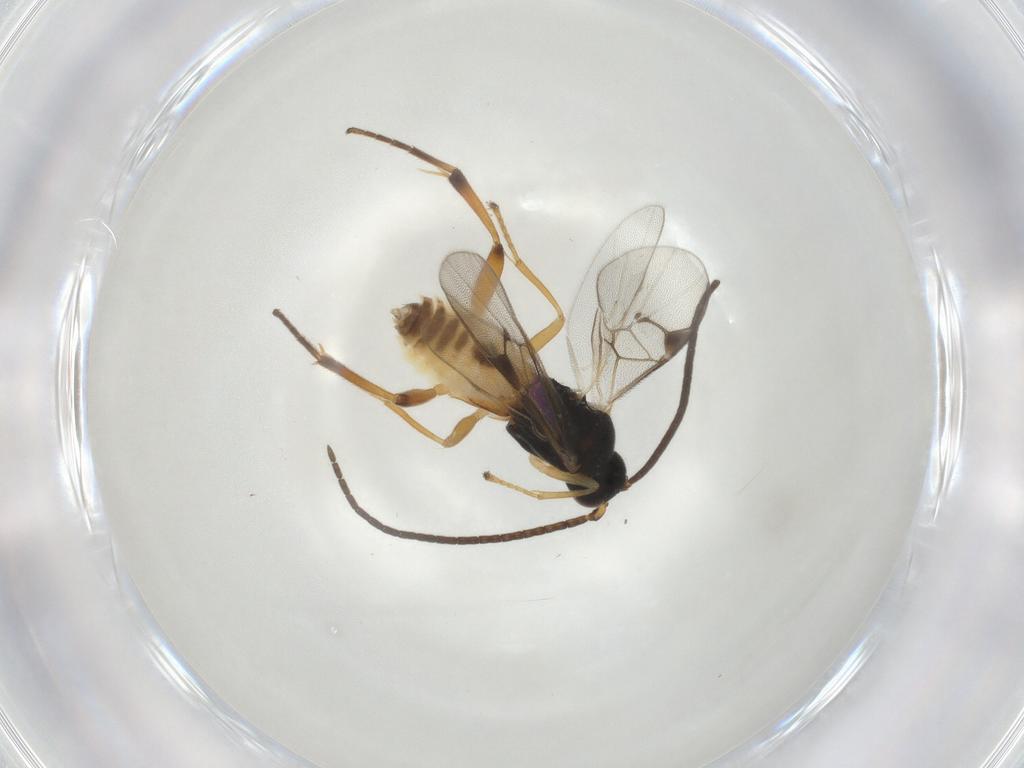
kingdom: Animalia
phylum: Arthropoda
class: Insecta
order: Hymenoptera
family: Braconidae
